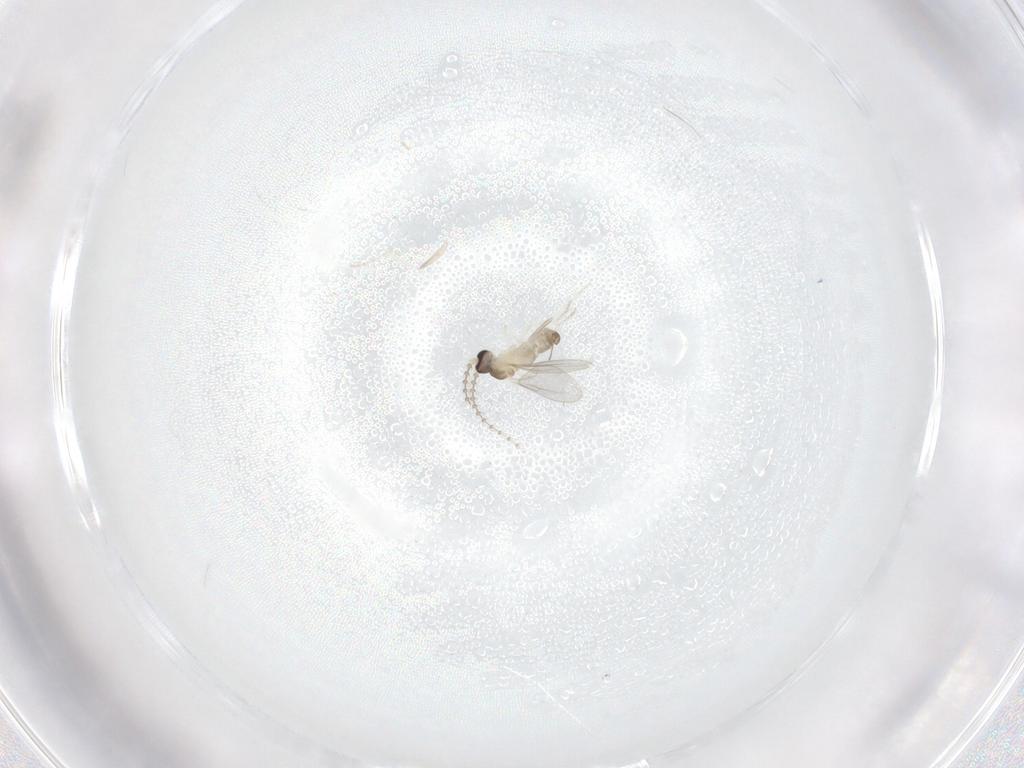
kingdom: Animalia
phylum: Arthropoda
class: Insecta
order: Diptera
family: Cecidomyiidae
